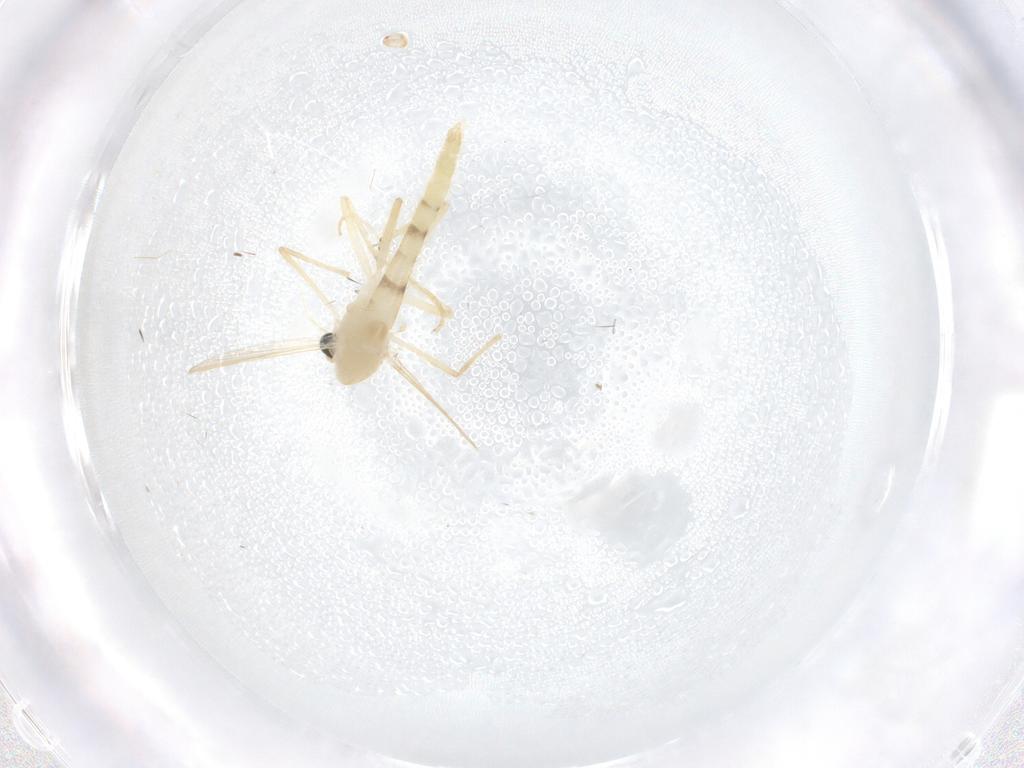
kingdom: Animalia
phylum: Arthropoda
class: Insecta
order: Diptera
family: Chironomidae
